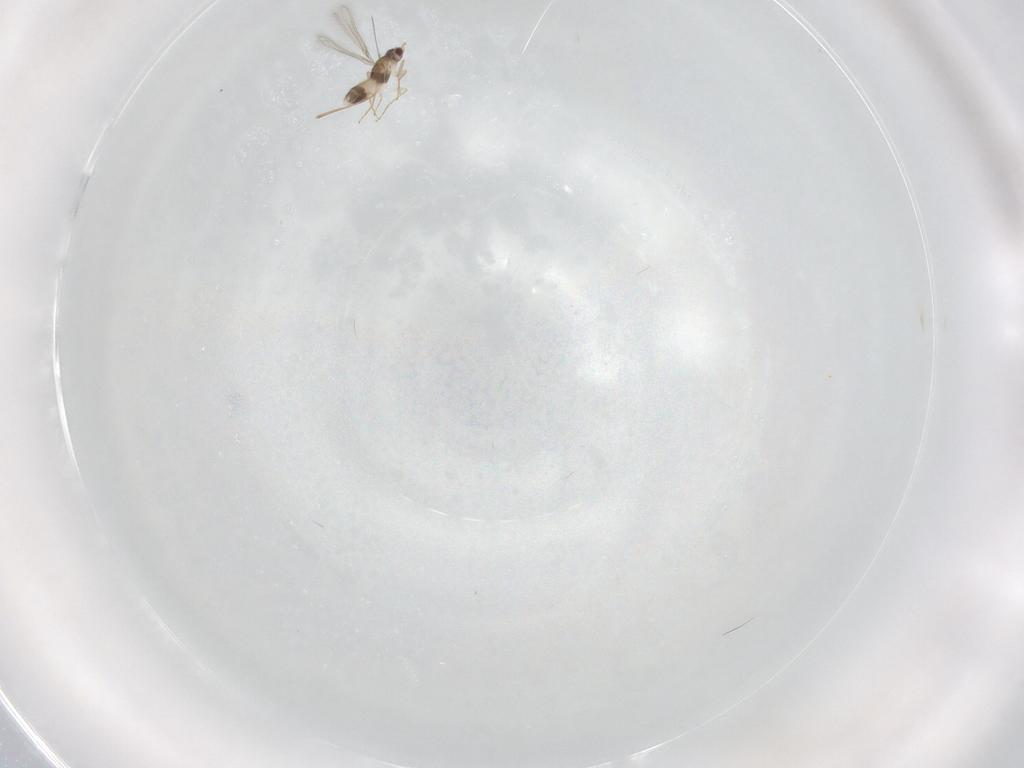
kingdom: Animalia
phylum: Arthropoda
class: Insecta
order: Hymenoptera
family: Mymaridae
